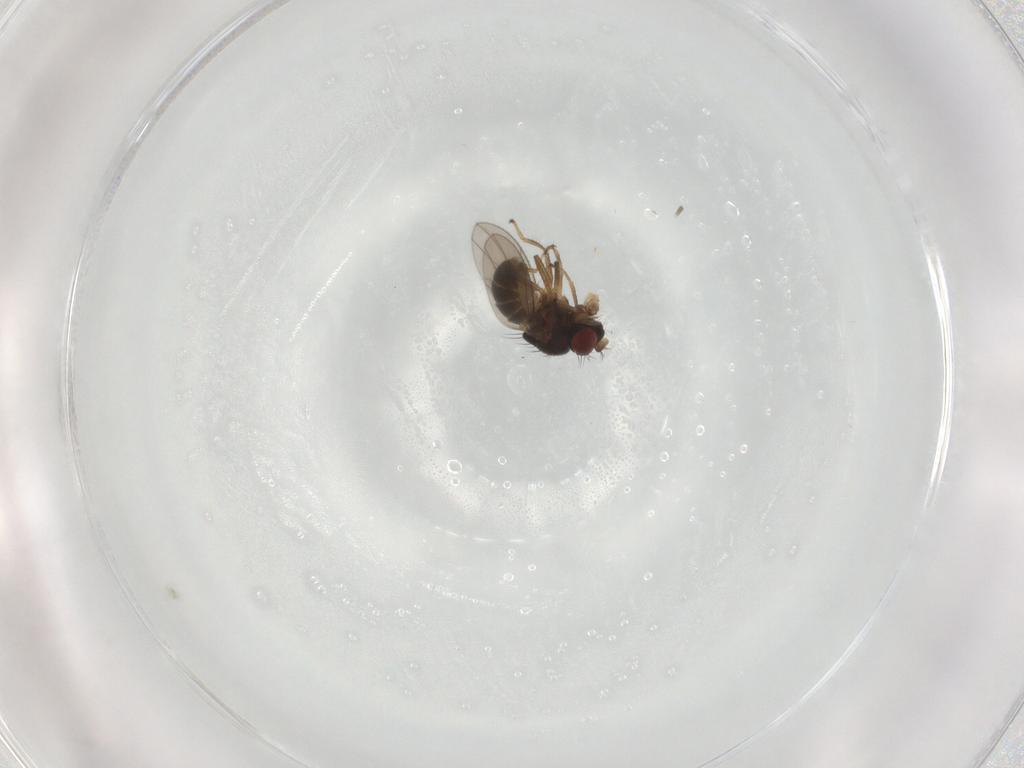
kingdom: Animalia
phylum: Arthropoda
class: Insecta
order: Diptera
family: Ephydridae
